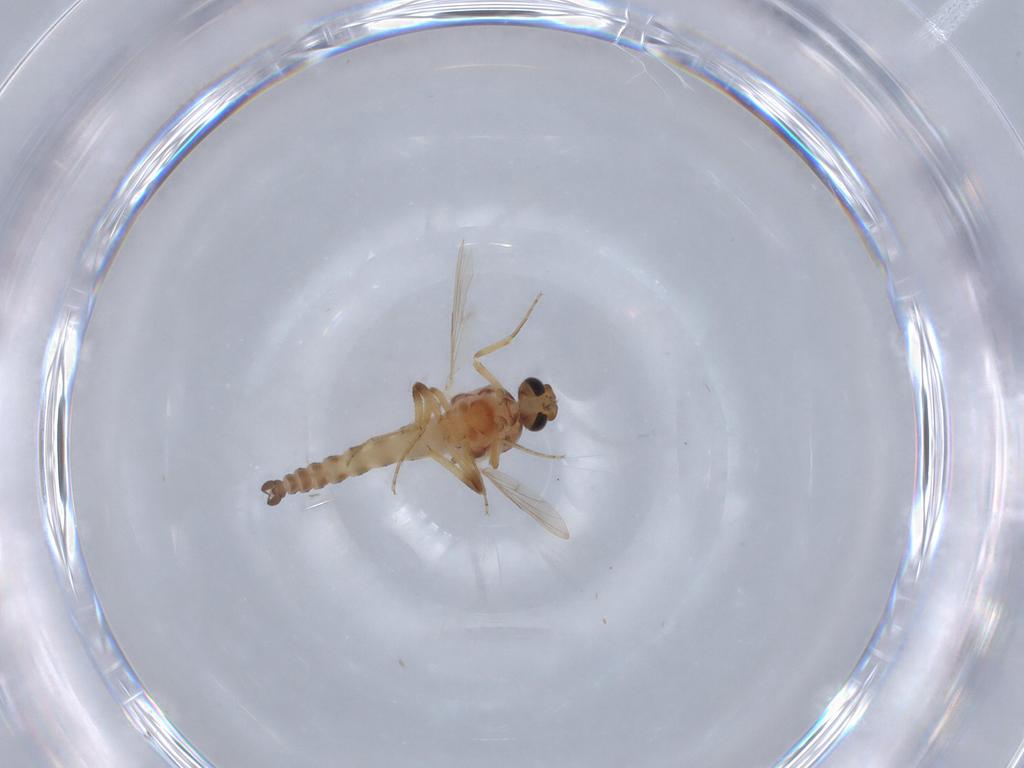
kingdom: Animalia
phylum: Arthropoda
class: Insecta
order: Diptera
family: Ceratopogonidae
